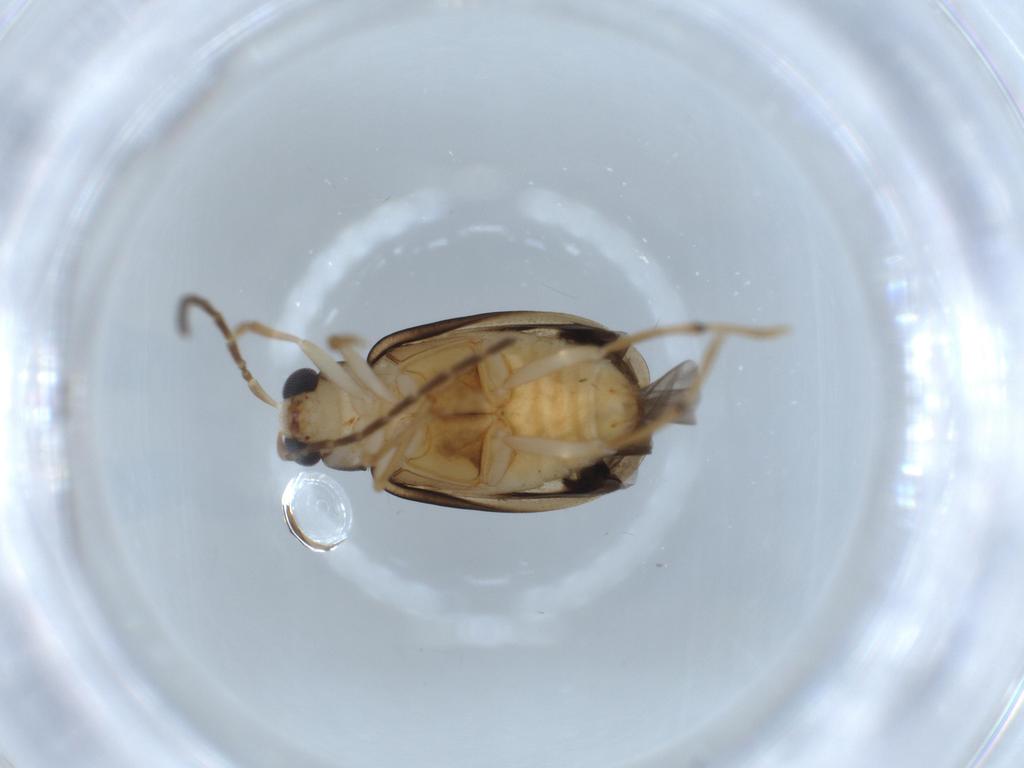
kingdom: Animalia
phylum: Arthropoda
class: Insecta
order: Coleoptera
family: Chrysomelidae
